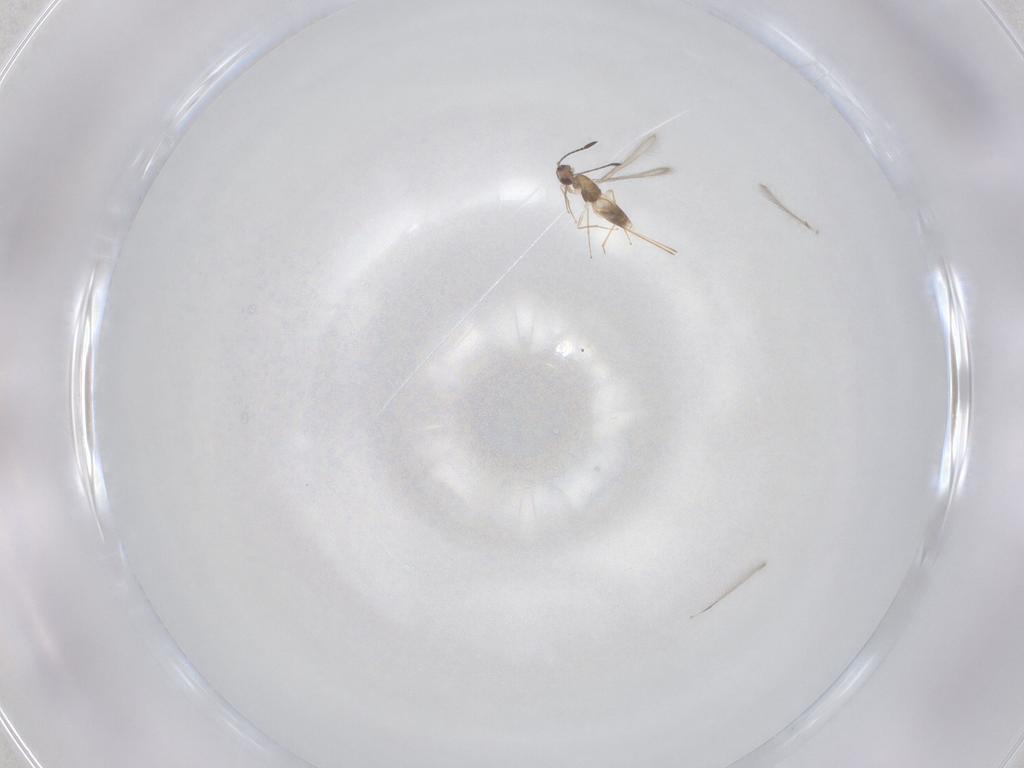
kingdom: Animalia
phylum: Arthropoda
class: Insecta
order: Hymenoptera
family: Mymaridae
